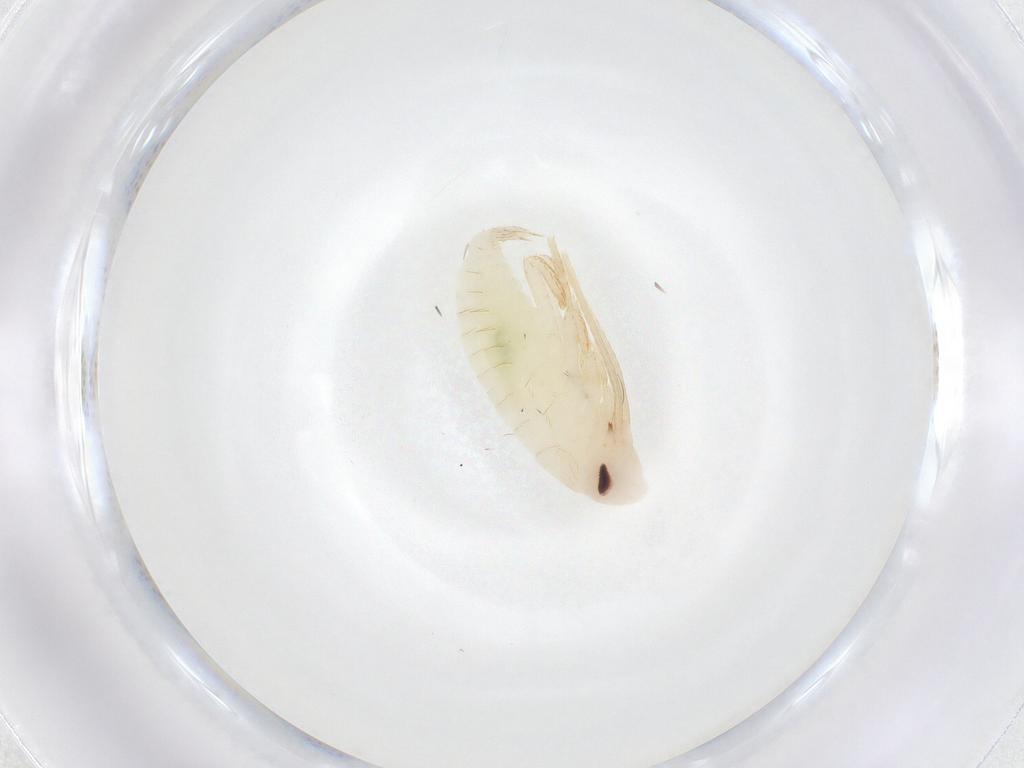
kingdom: Animalia
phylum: Arthropoda
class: Insecta
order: Blattodea
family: Ectobiidae
